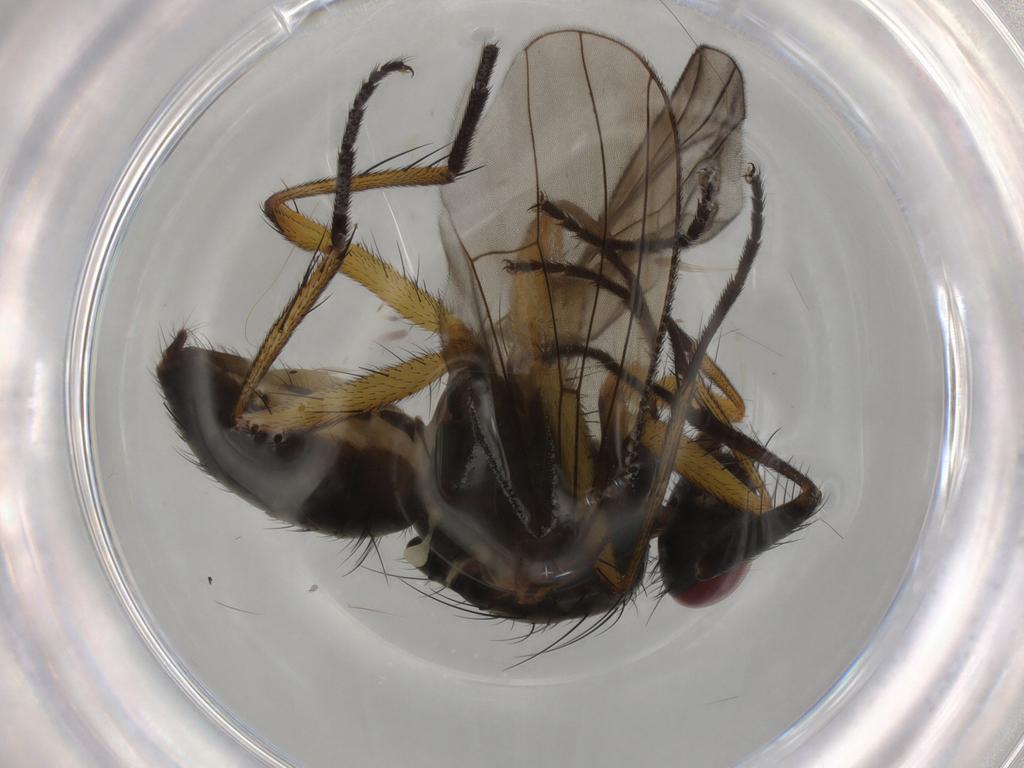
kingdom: Animalia
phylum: Arthropoda
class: Insecta
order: Diptera
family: Muscidae
